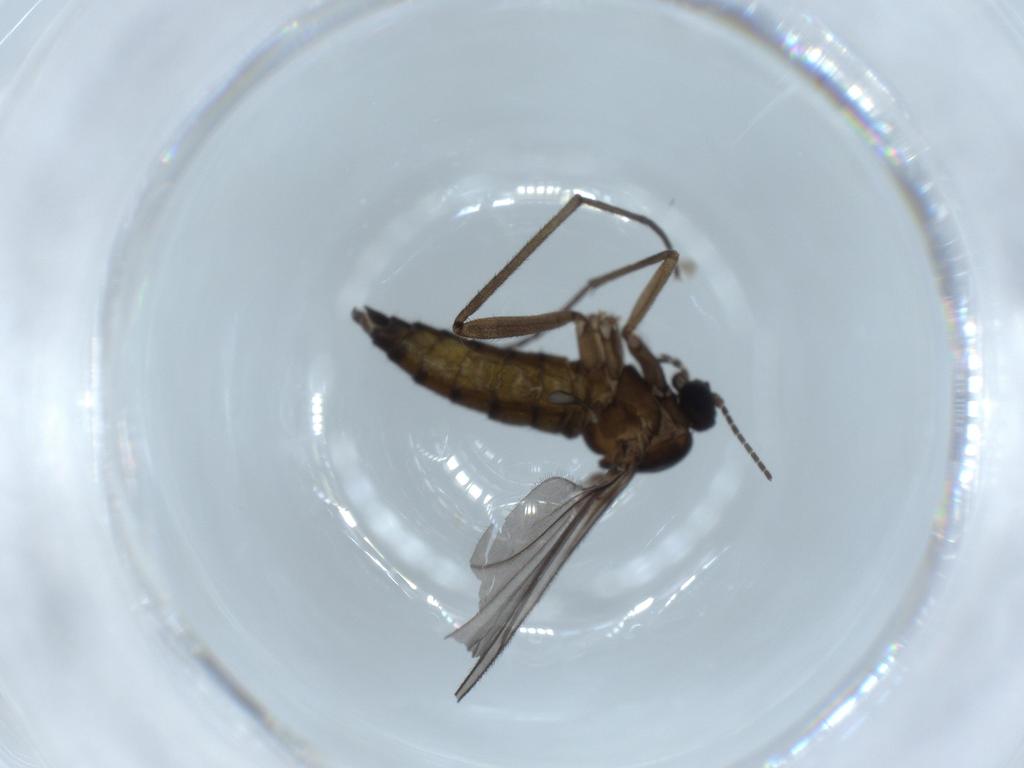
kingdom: Animalia
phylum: Arthropoda
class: Insecta
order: Diptera
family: Sciaridae
